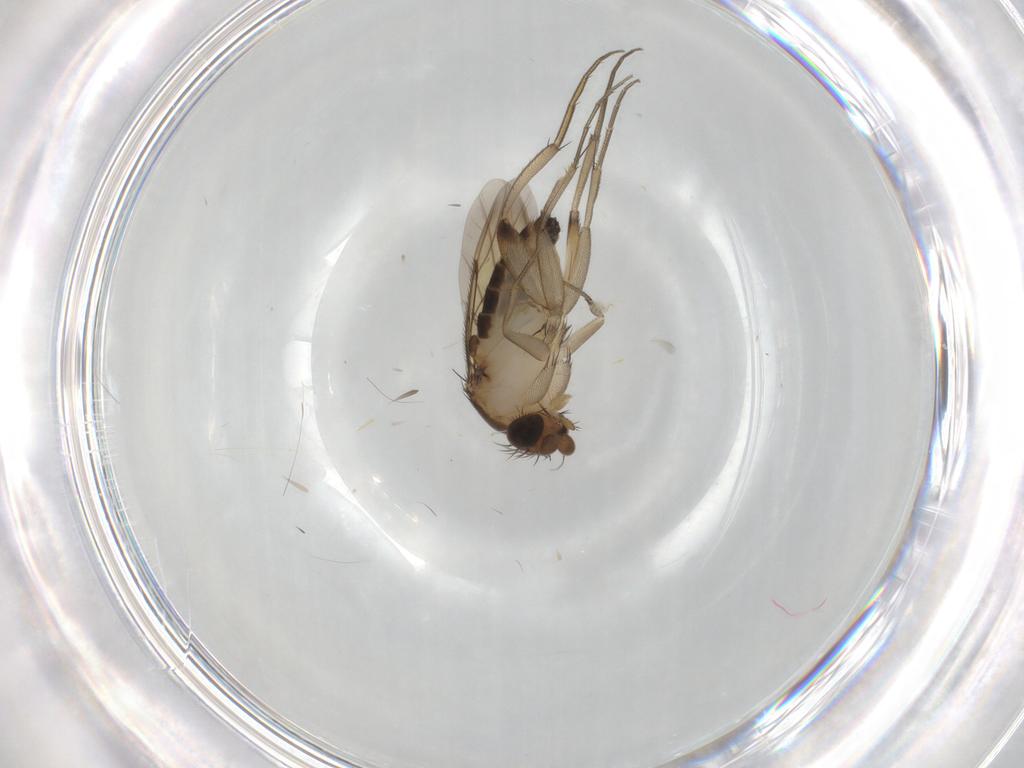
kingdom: Animalia
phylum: Arthropoda
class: Insecta
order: Diptera
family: Phoridae
